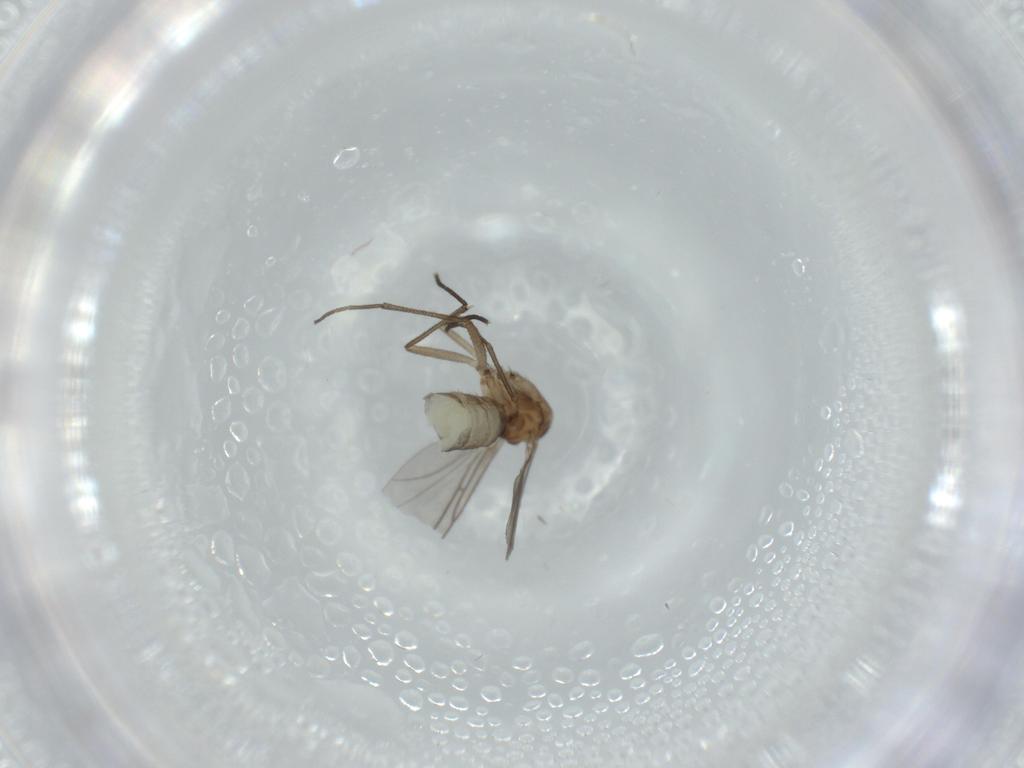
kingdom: Animalia
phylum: Arthropoda
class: Insecta
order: Diptera
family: Sciaridae
